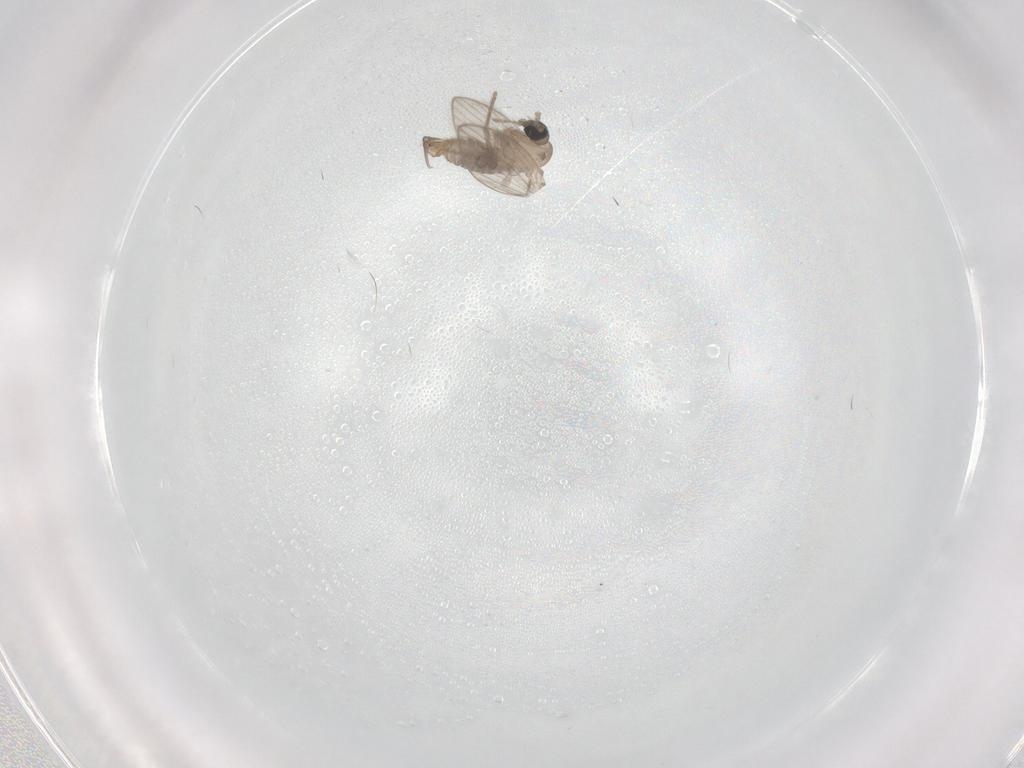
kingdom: Animalia
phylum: Arthropoda
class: Insecta
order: Diptera
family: Psychodidae
